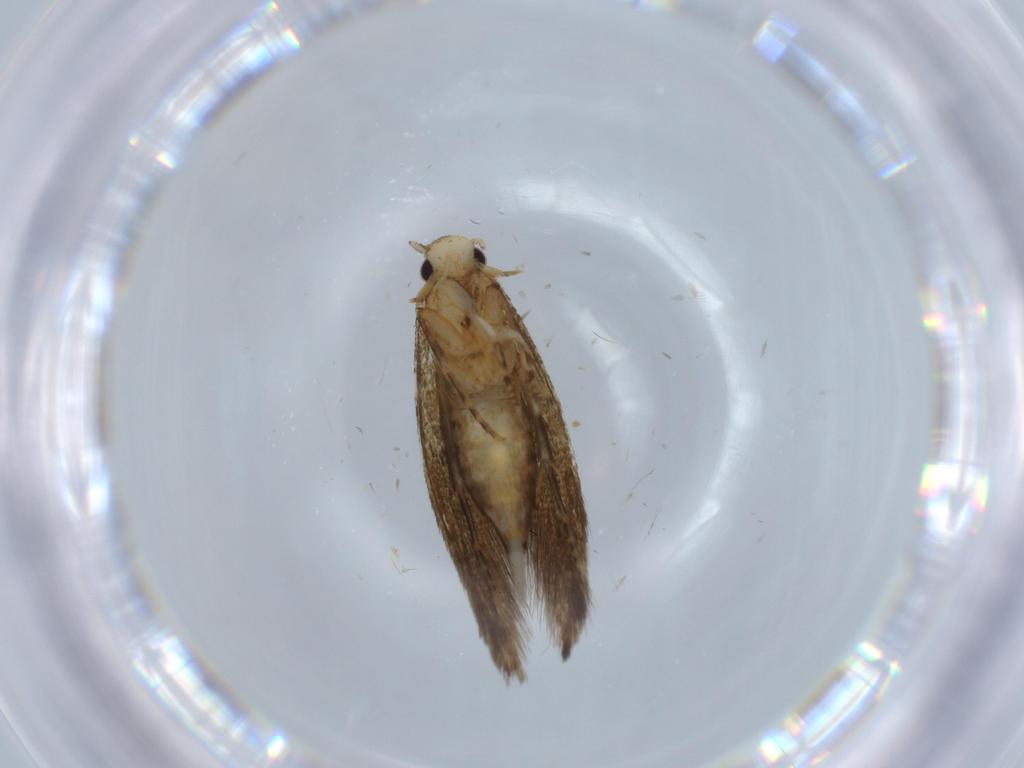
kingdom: Animalia
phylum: Arthropoda
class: Insecta
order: Lepidoptera
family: Tineidae
